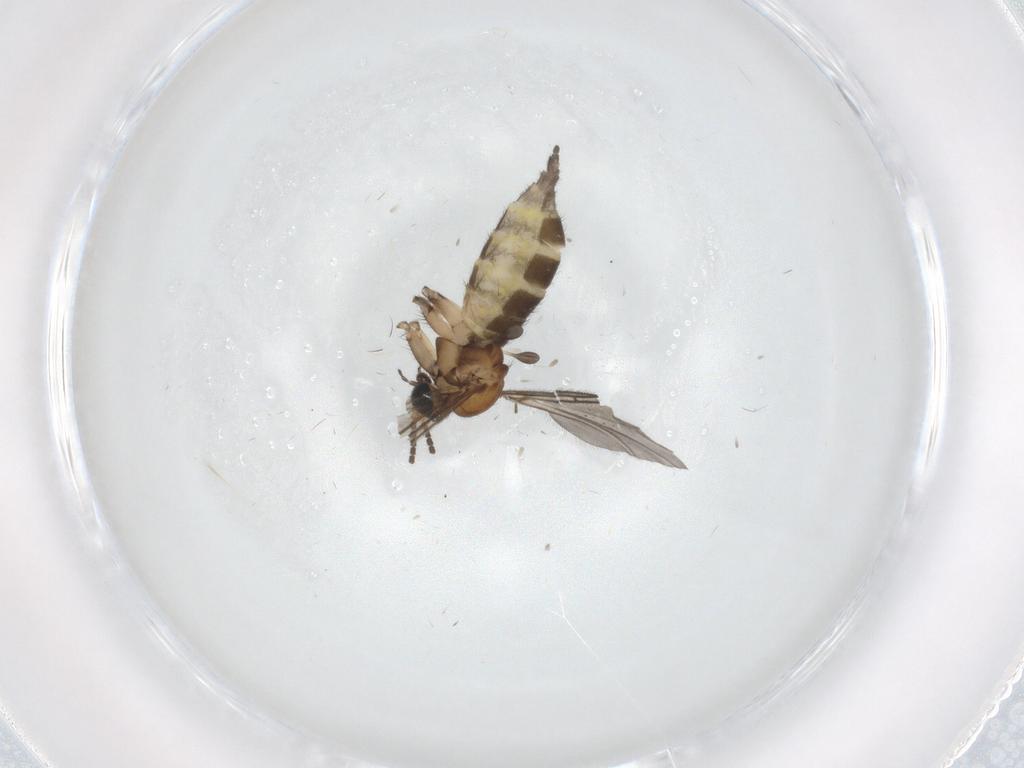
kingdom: Animalia
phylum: Arthropoda
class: Insecta
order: Diptera
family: Sciaridae
